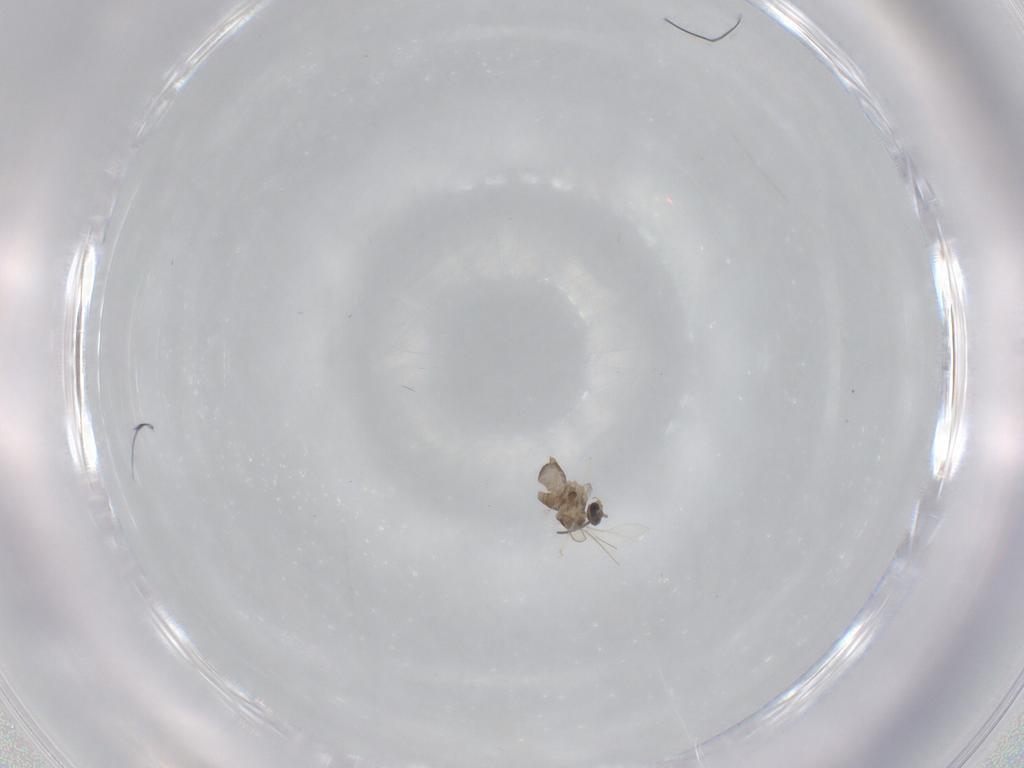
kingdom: Animalia
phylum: Arthropoda
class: Insecta
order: Diptera
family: Cecidomyiidae
